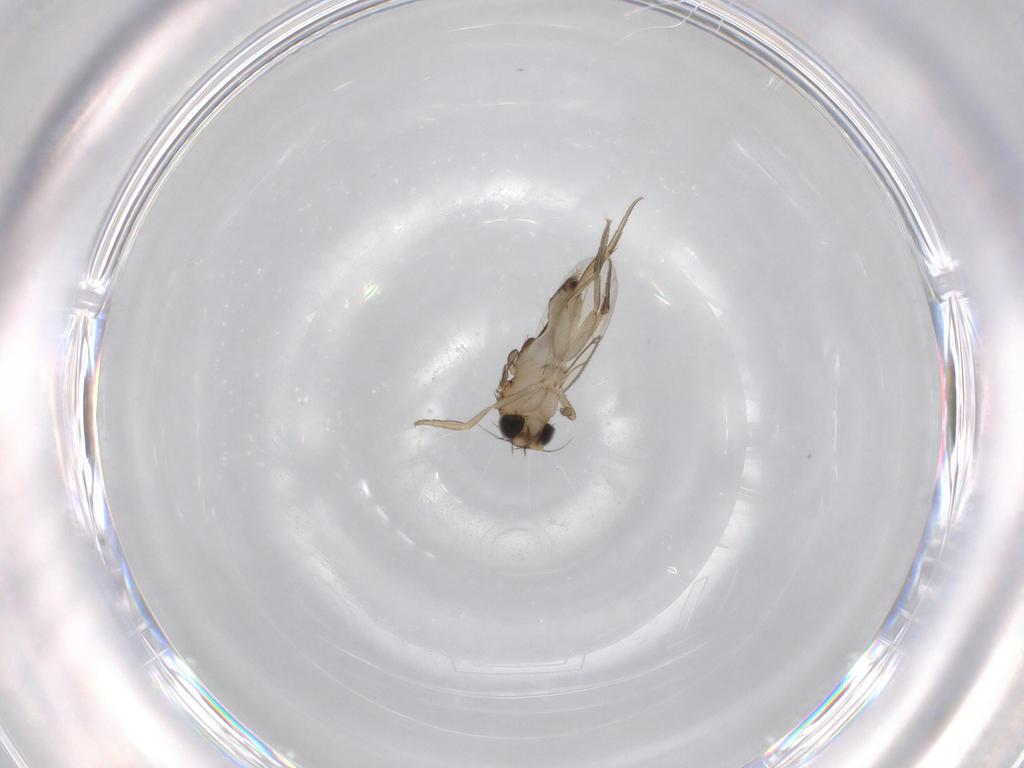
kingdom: Animalia
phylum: Arthropoda
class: Insecta
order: Diptera
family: Phoridae
